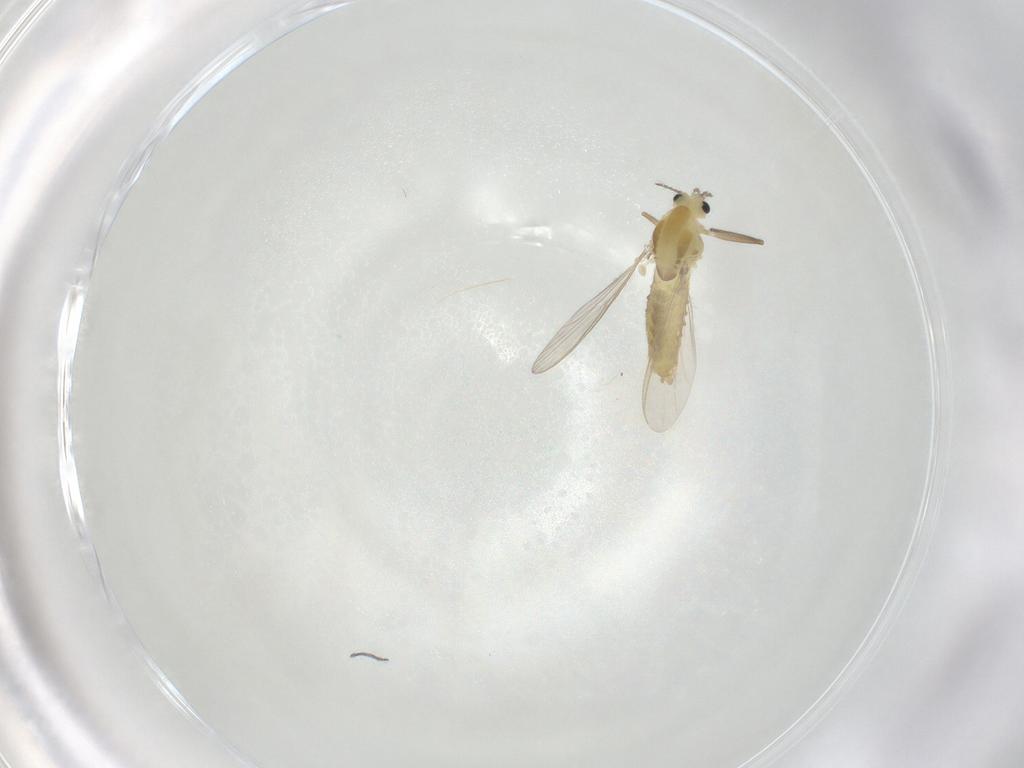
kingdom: Animalia
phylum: Arthropoda
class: Insecta
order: Diptera
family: Chironomidae
